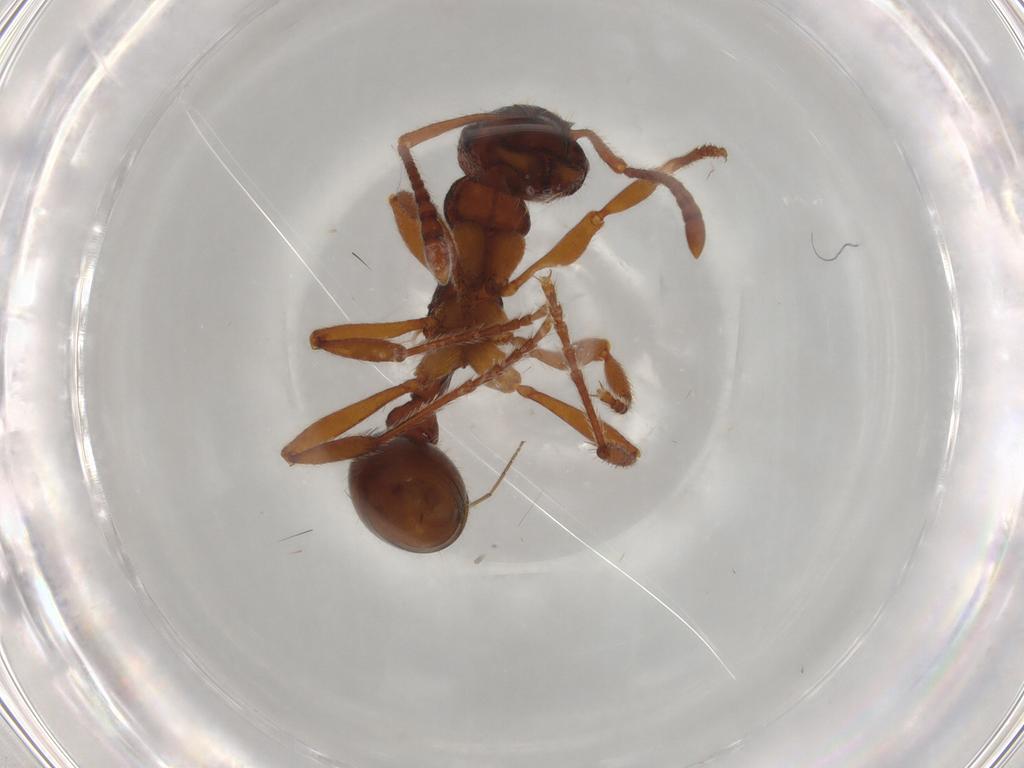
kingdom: Animalia
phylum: Arthropoda
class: Insecta
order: Hymenoptera
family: Formicidae
